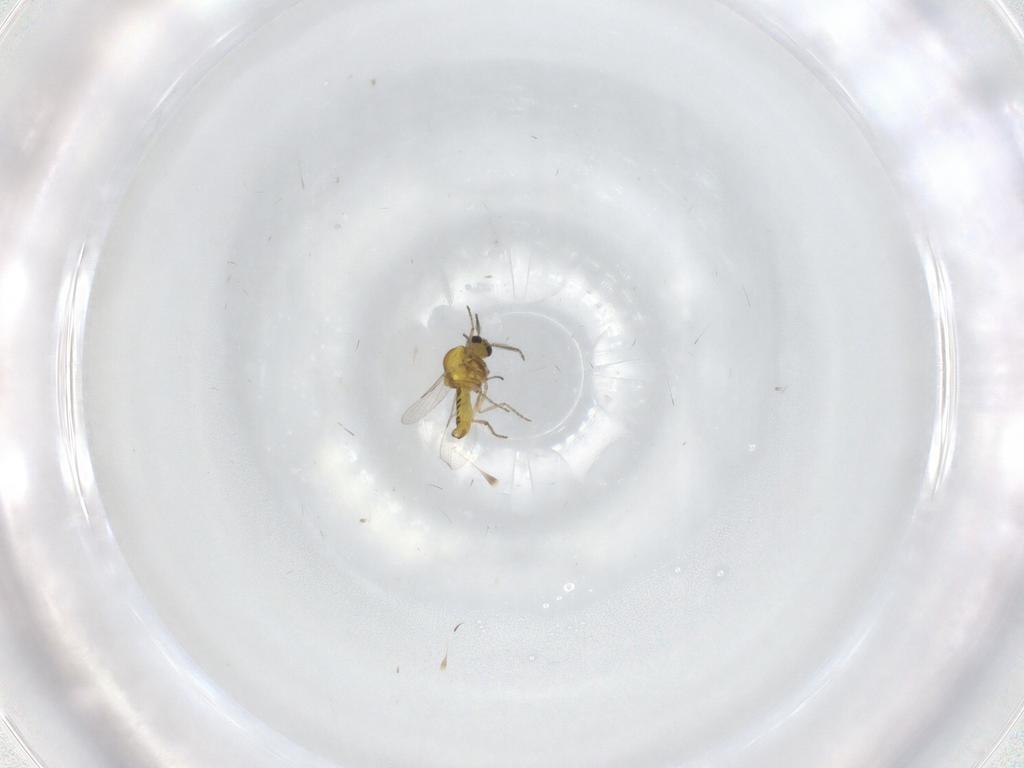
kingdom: Animalia
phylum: Arthropoda
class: Insecta
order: Diptera
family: Ceratopogonidae
